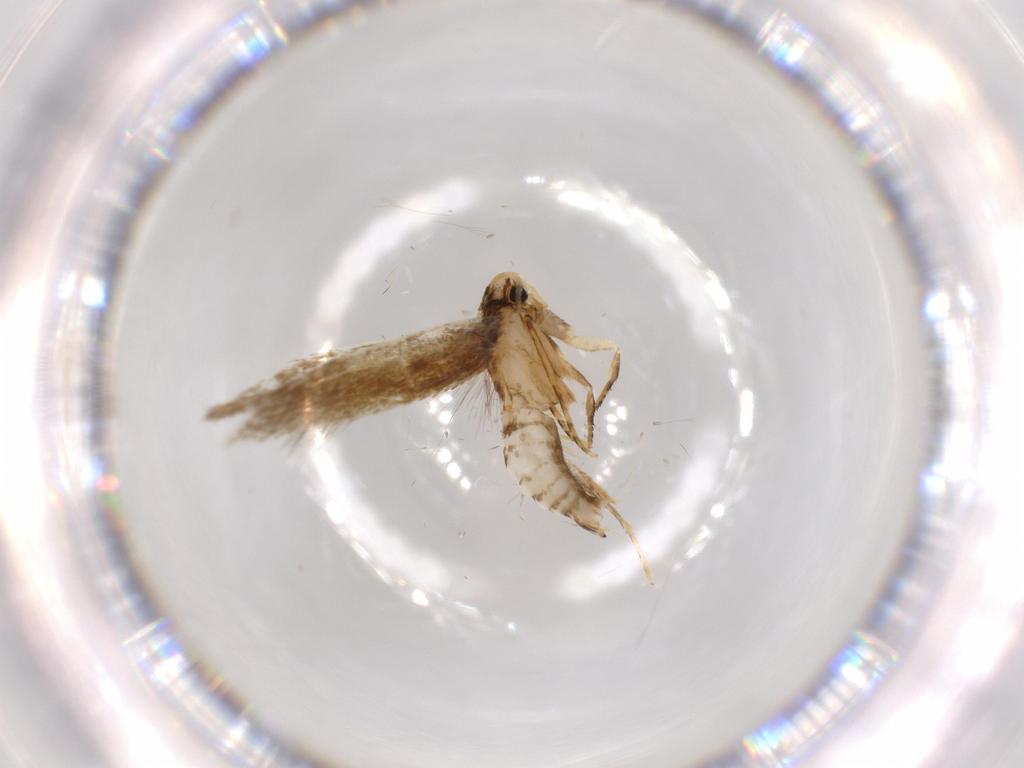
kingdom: Animalia
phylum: Arthropoda
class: Insecta
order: Lepidoptera
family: Tineidae
